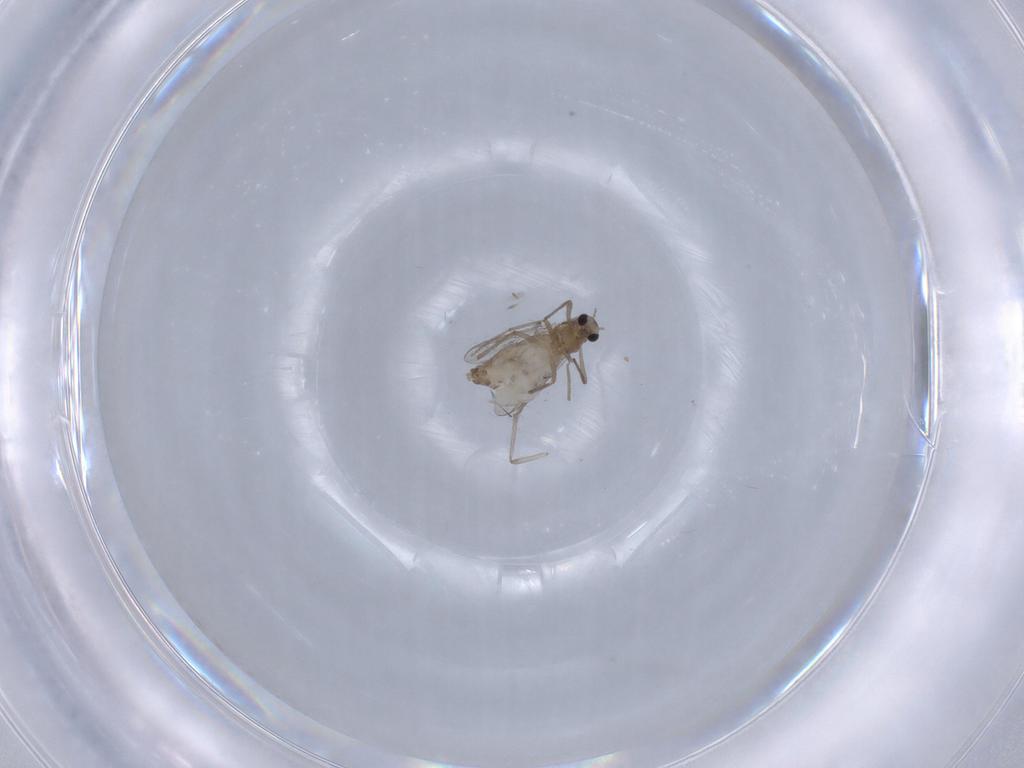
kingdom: Animalia
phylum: Arthropoda
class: Insecta
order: Diptera
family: Chironomidae
